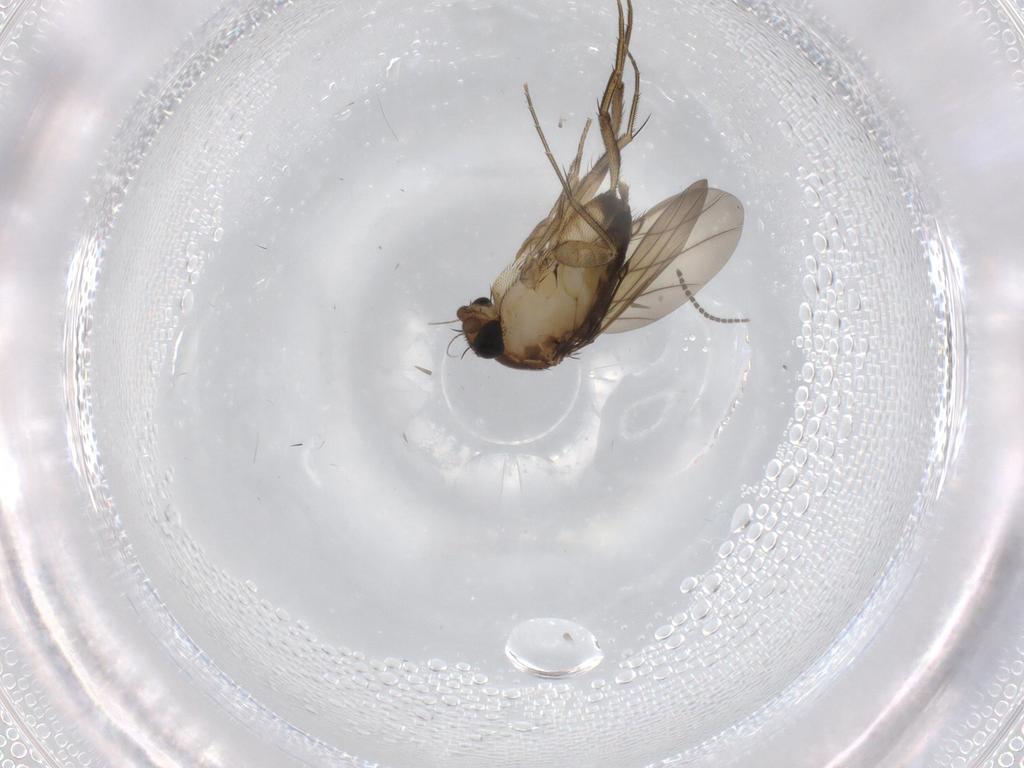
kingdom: Animalia
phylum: Arthropoda
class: Insecta
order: Diptera
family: Sciaridae
